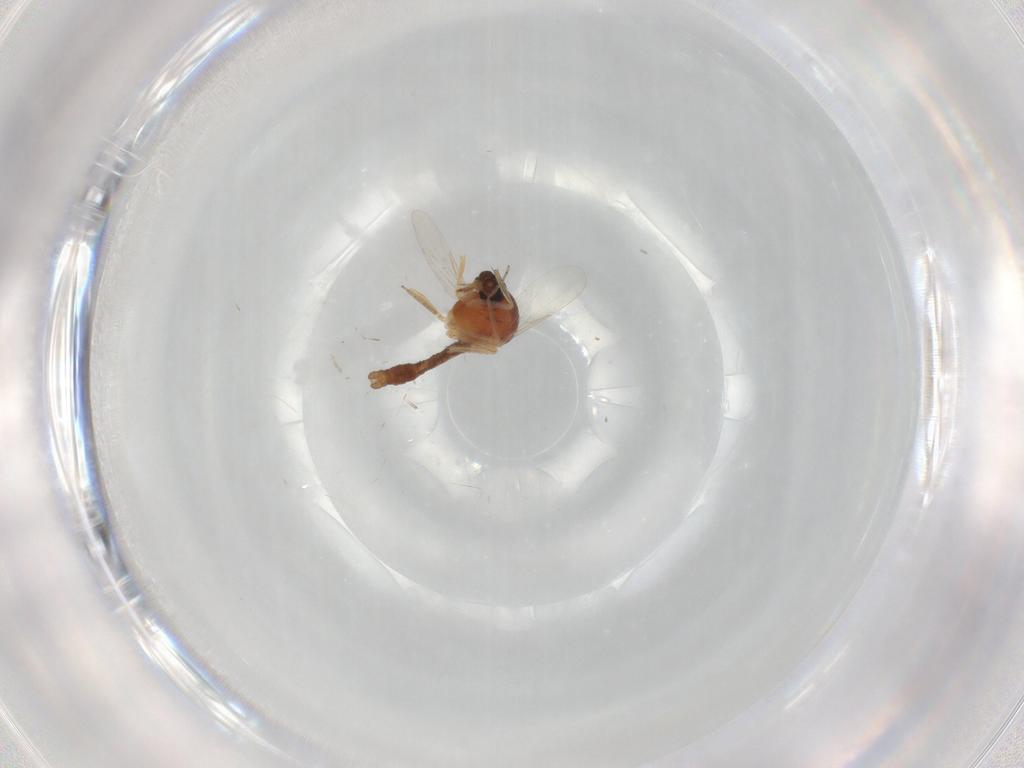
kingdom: Animalia
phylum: Arthropoda
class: Insecta
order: Diptera
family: Ceratopogonidae
